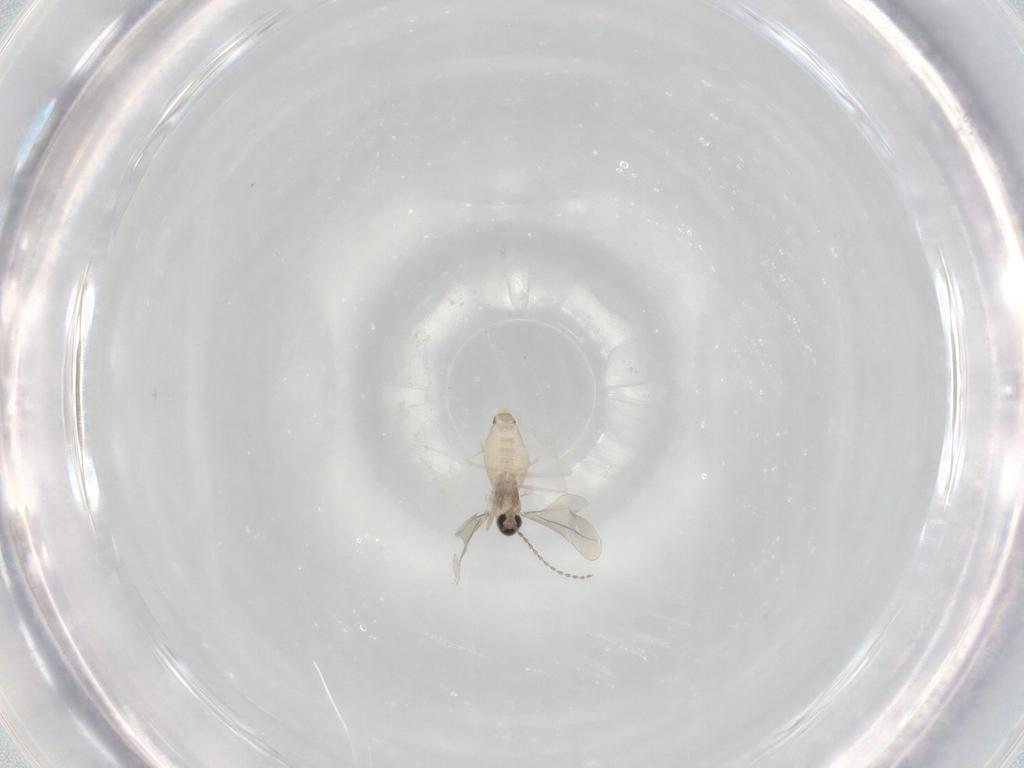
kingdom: Animalia
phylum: Arthropoda
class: Insecta
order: Diptera
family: Cecidomyiidae
